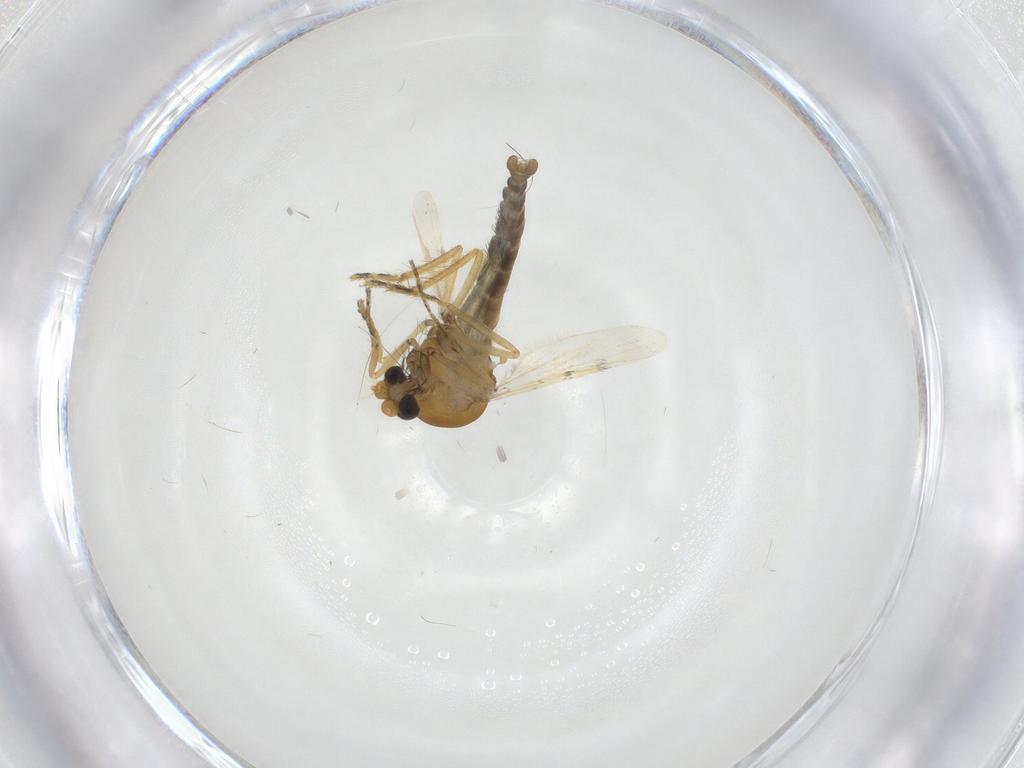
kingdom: Animalia
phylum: Arthropoda
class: Insecta
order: Diptera
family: Ceratopogonidae
